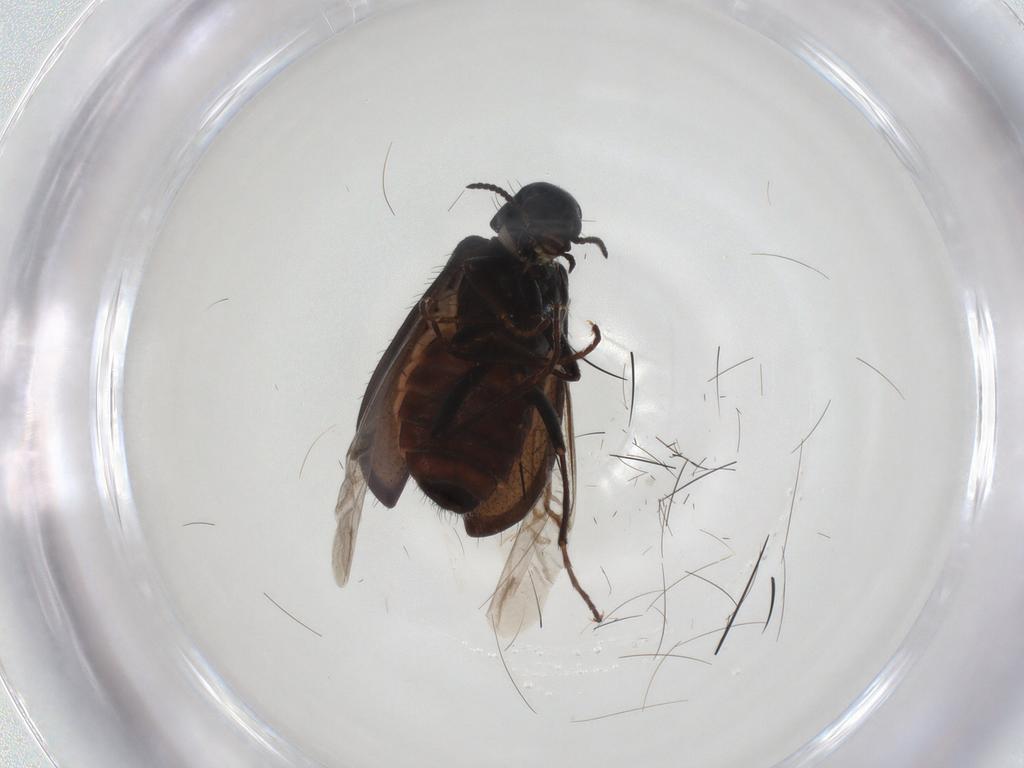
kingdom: Animalia
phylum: Arthropoda
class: Insecta
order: Coleoptera
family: Melyridae
